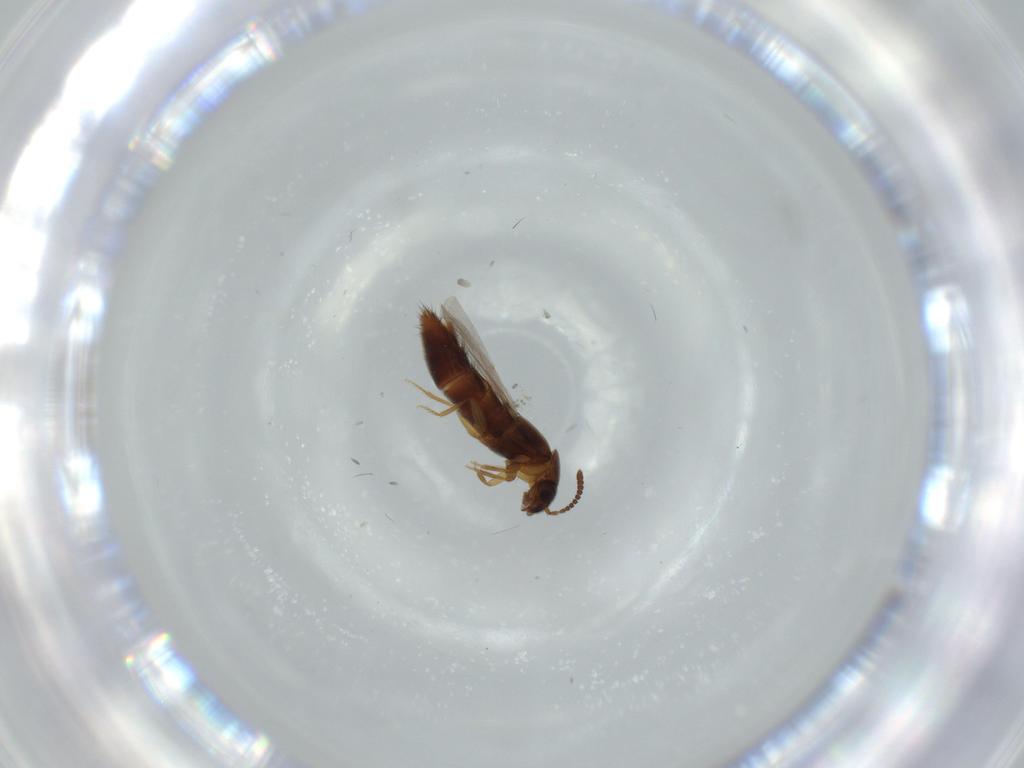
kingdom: Animalia
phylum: Arthropoda
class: Insecta
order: Coleoptera
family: Staphylinidae
